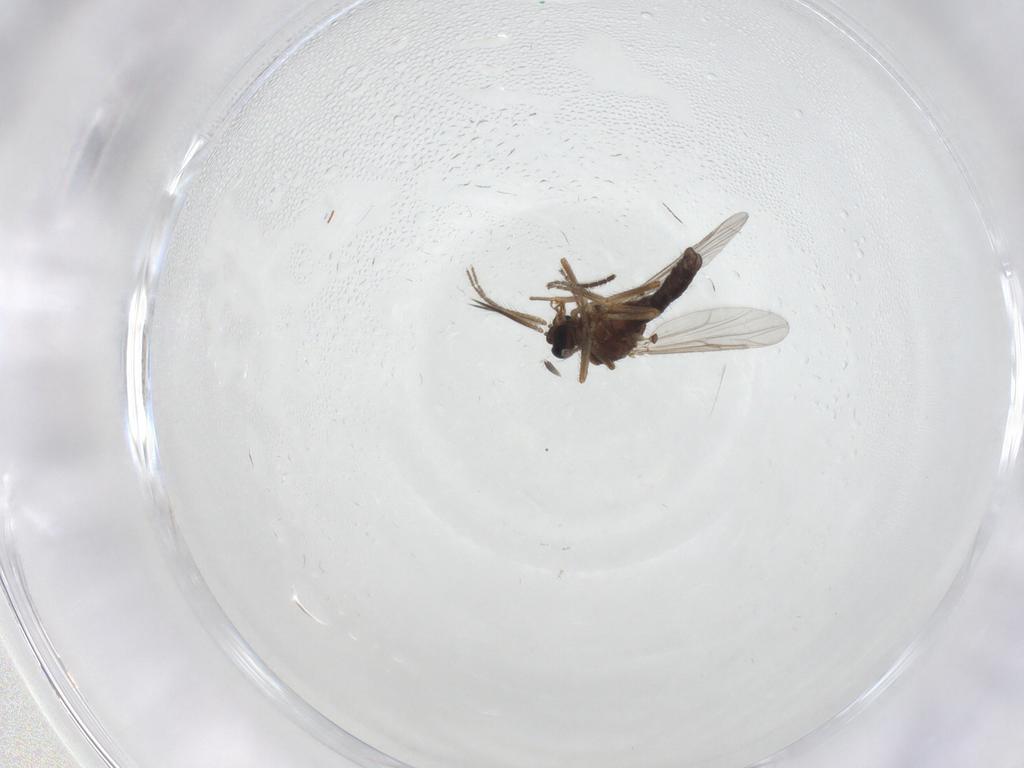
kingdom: Animalia
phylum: Arthropoda
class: Insecta
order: Diptera
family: Ceratopogonidae
